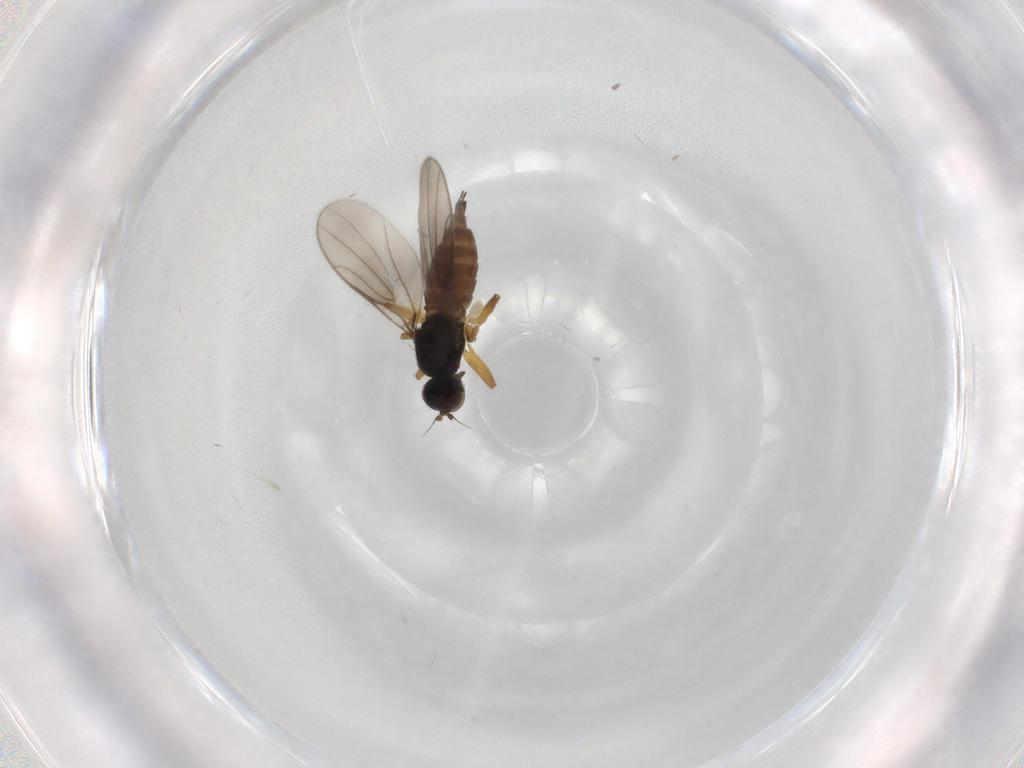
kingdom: Animalia
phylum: Arthropoda
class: Insecta
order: Diptera
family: Hybotidae
